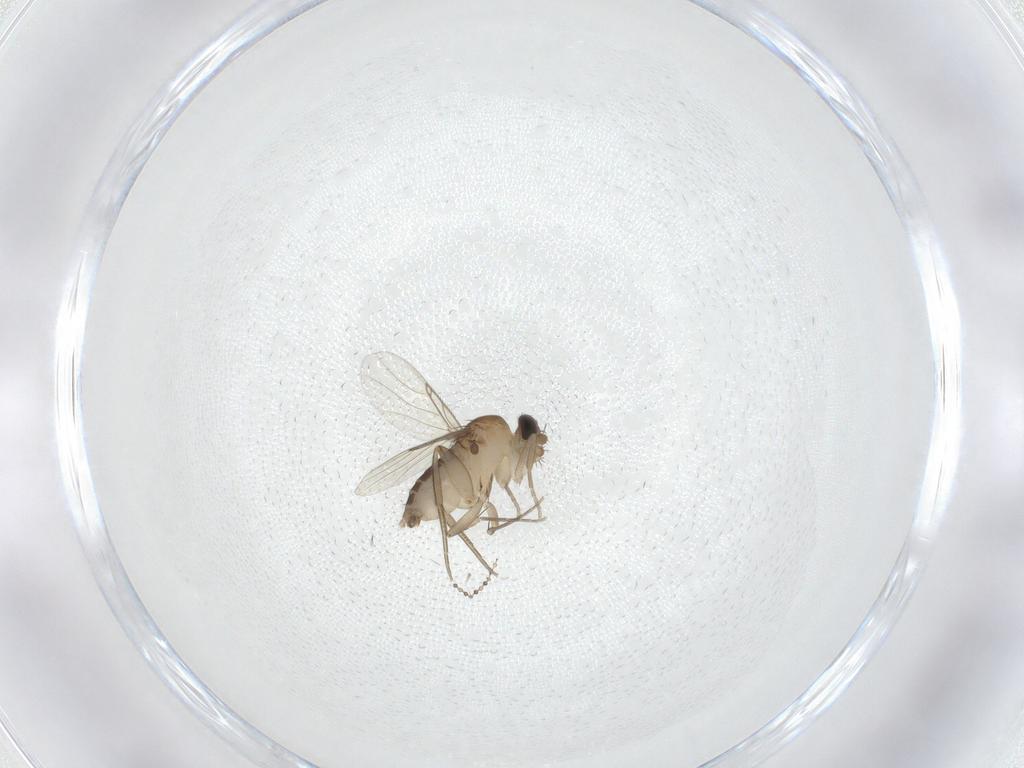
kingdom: Animalia
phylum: Arthropoda
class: Insecta
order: Diptera
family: Phoridae
